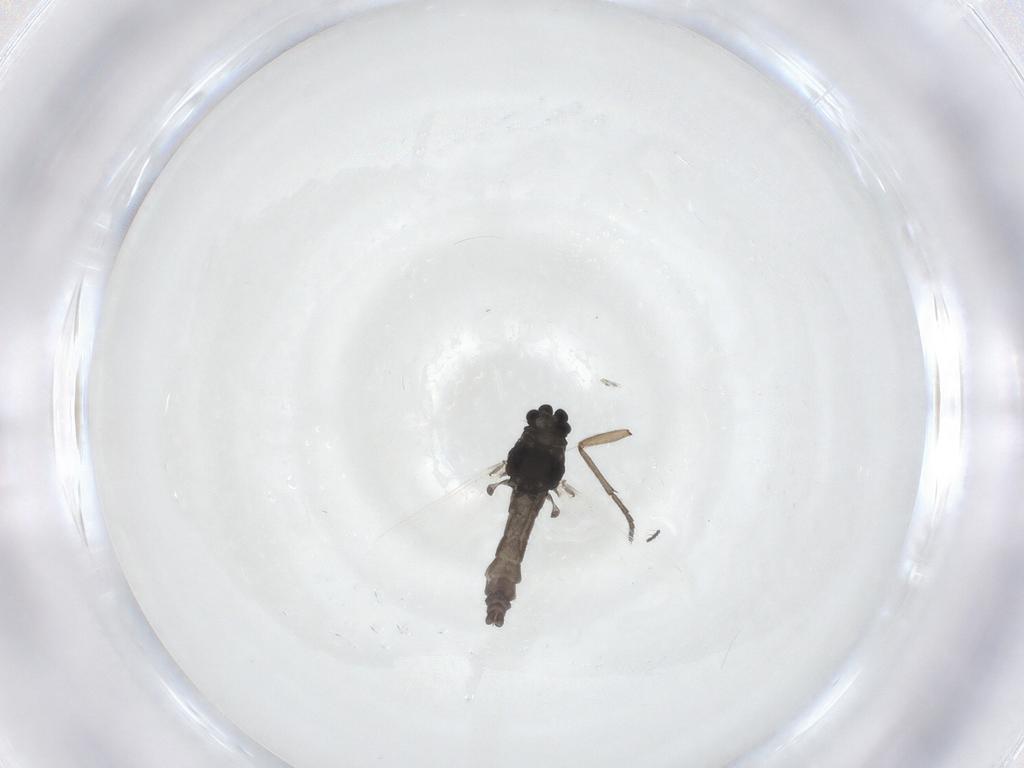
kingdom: Animalia
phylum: Arthropoda
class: Insecta
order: Diptera
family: Sciaridae
